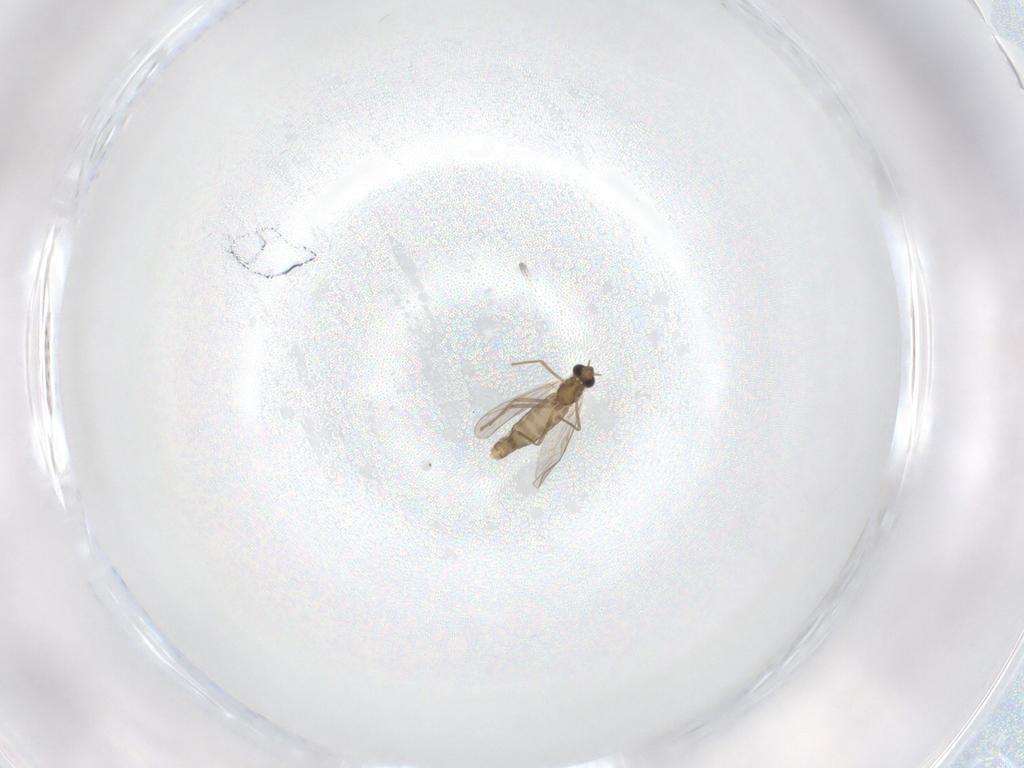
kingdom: Animalia
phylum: Arthropoda
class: Insecta
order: Diptera
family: Chironomidae
